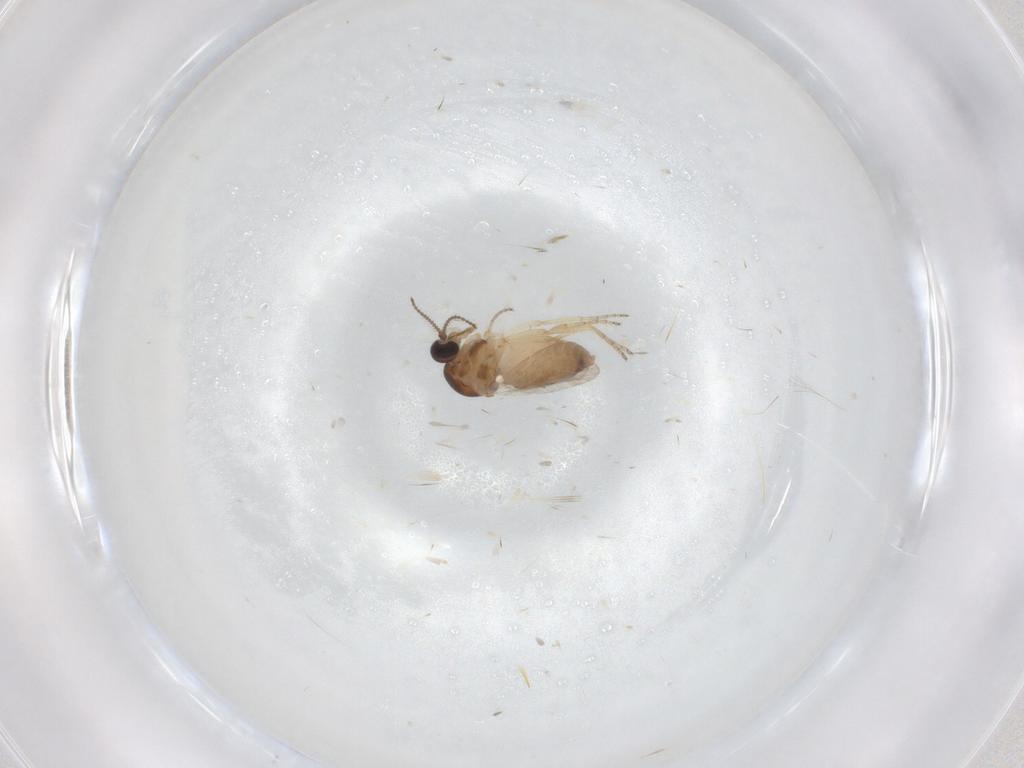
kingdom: Animalia
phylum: Arthropoda
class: Insecta
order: Diptera
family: Ceratopogonidae
